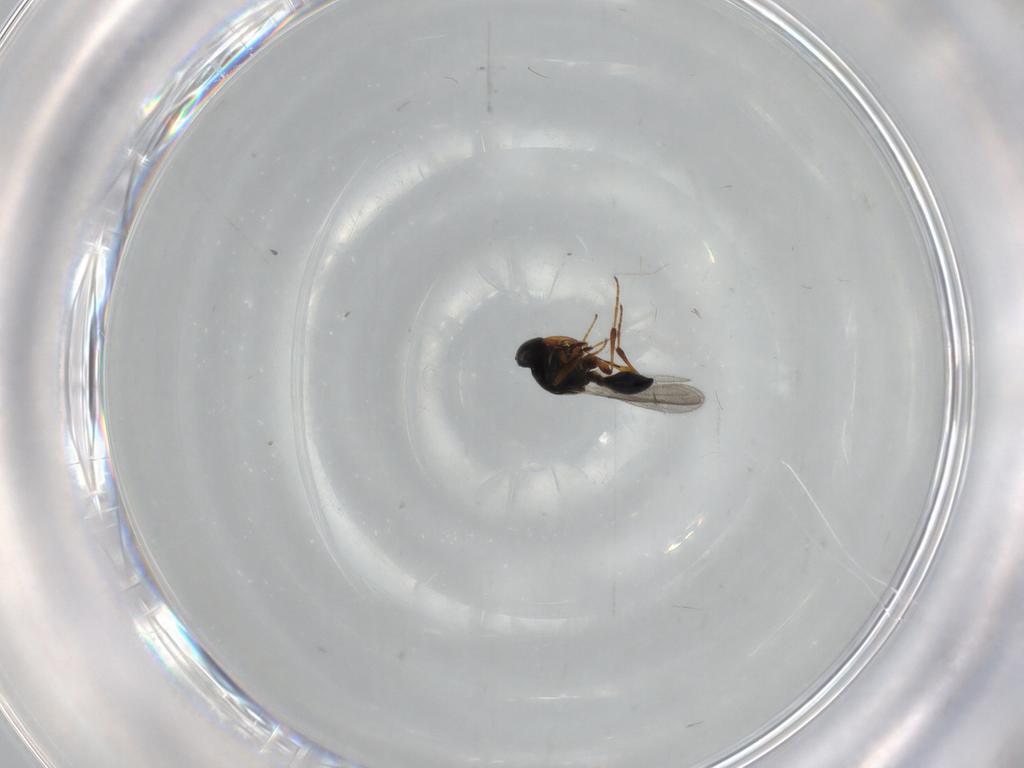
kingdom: Animalia
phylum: Arthropoda
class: Insecta
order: Hymenoptera
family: Platygastridae
